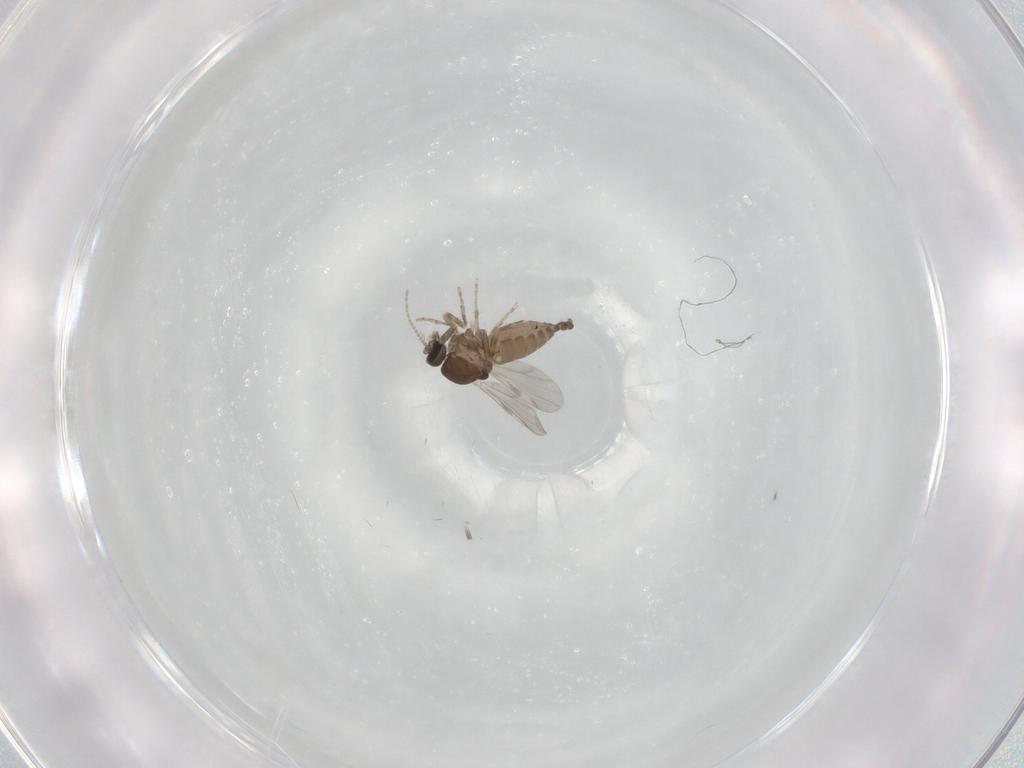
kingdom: Animalia
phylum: Arthropoda
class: Insecta
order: Diptera
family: Ceratopogonidae
